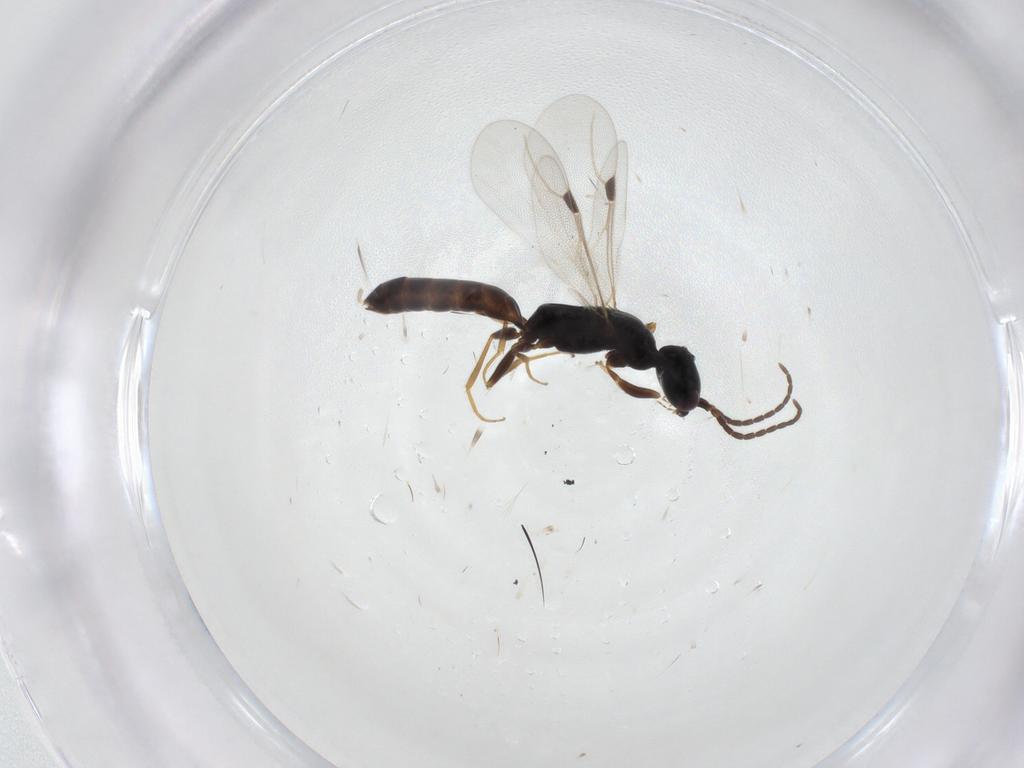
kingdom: Animalia
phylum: Arthropoda
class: Insecta
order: Hymenoptera
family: Bethylidae
